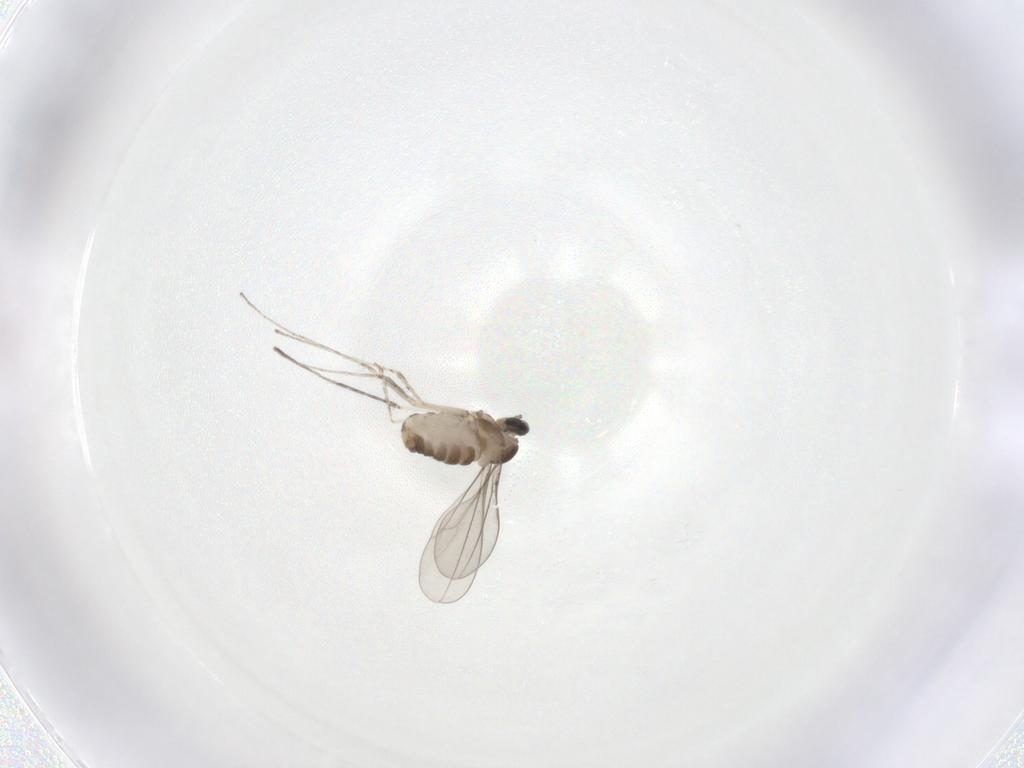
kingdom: Animalia
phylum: Arthropoda
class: Insecta
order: Diptera
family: Cecidomyiidae
